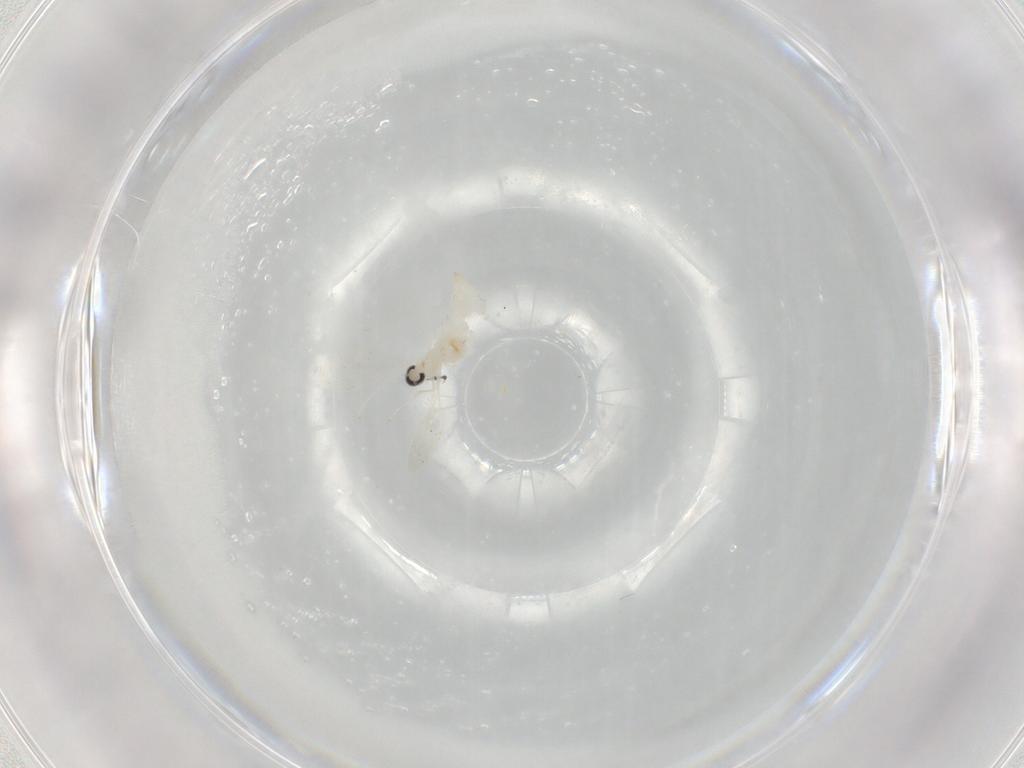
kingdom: Animalia
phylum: Arthropoda
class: Insecta
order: Diptera
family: Cecidomyiidae
